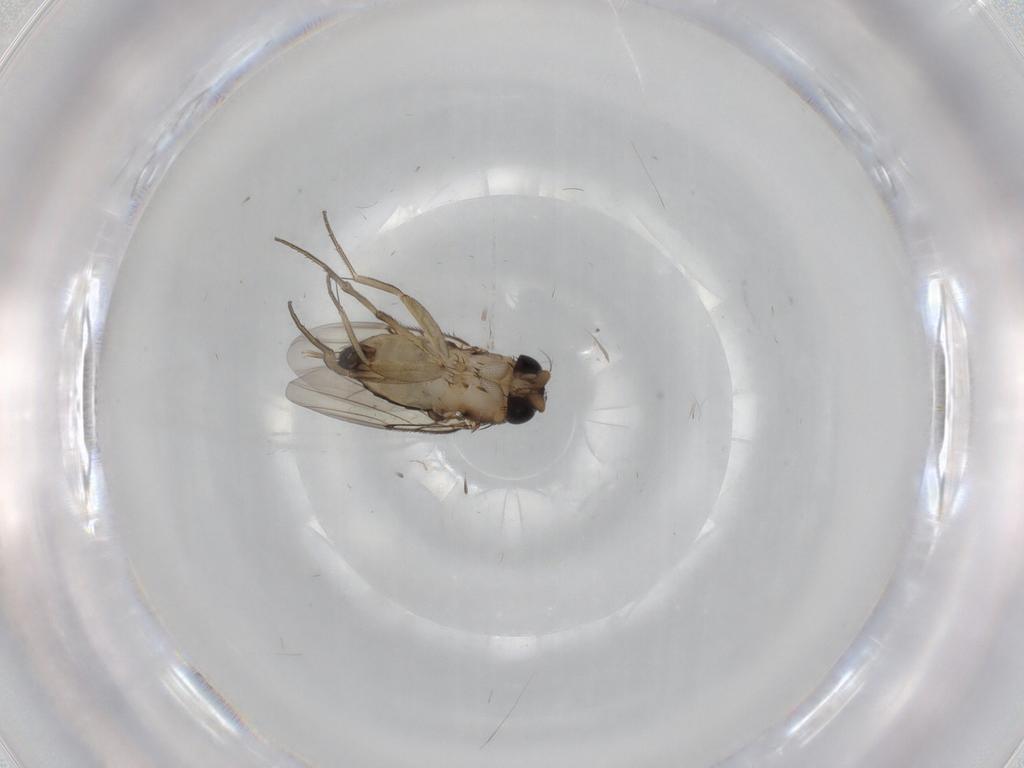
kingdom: Animalia
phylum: Arthropoda
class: Insecta
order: Diptera
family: Phoridae
